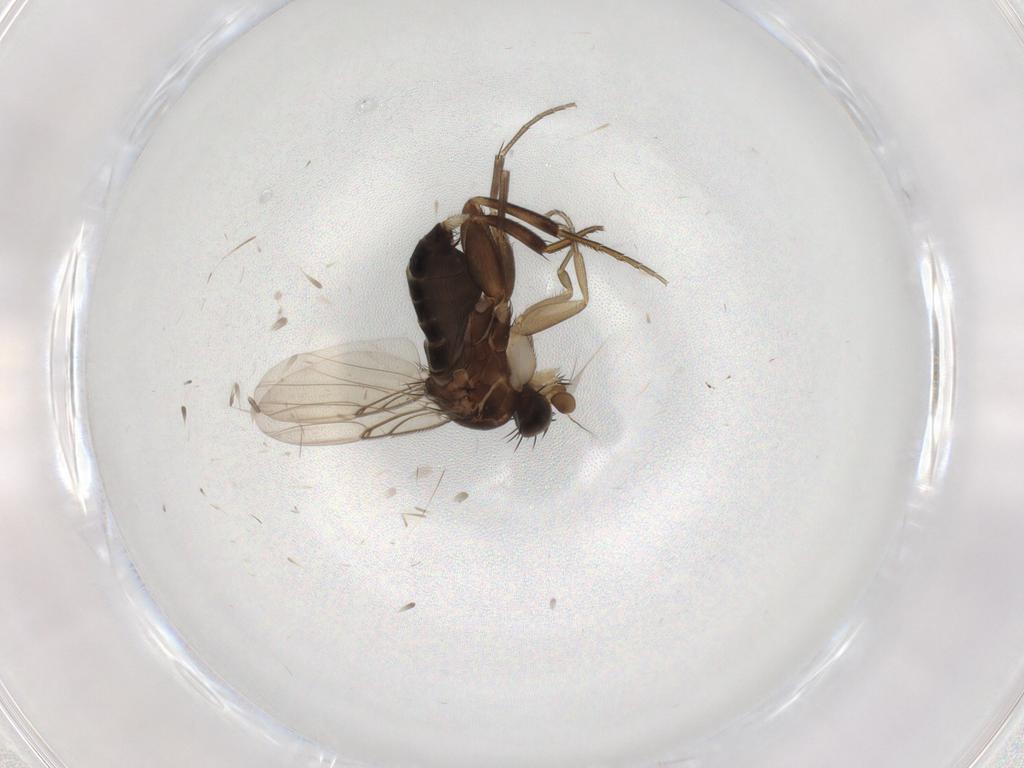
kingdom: Animalia
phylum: Arthropoda
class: Insecta
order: Diptera
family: Phoridae
